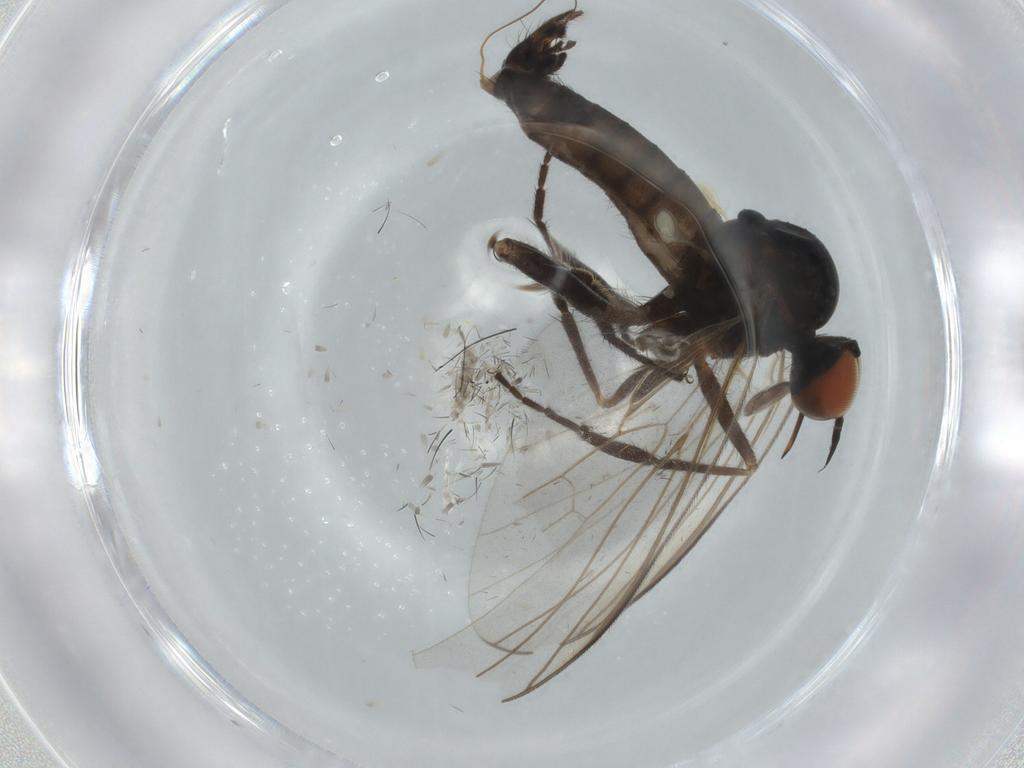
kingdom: Animalia
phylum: Arthropoda
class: Insecta
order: Diptera
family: Empididae
